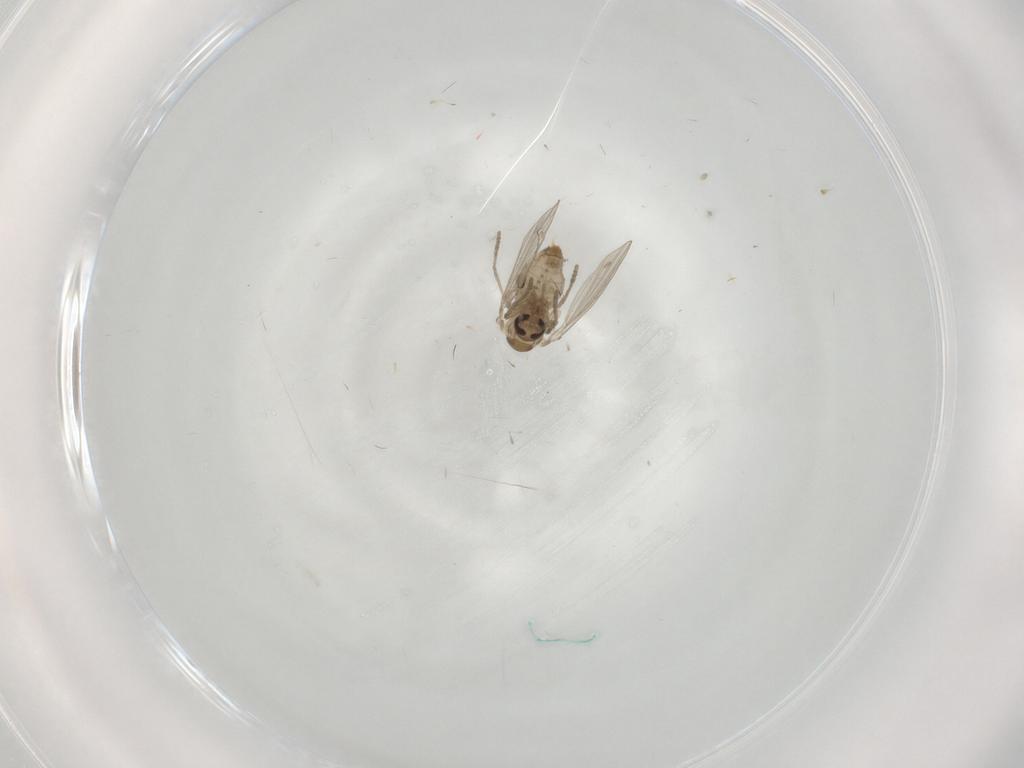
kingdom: Animalia
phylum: Arthropoda
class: Insecta
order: Diptera
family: Psychodidae
